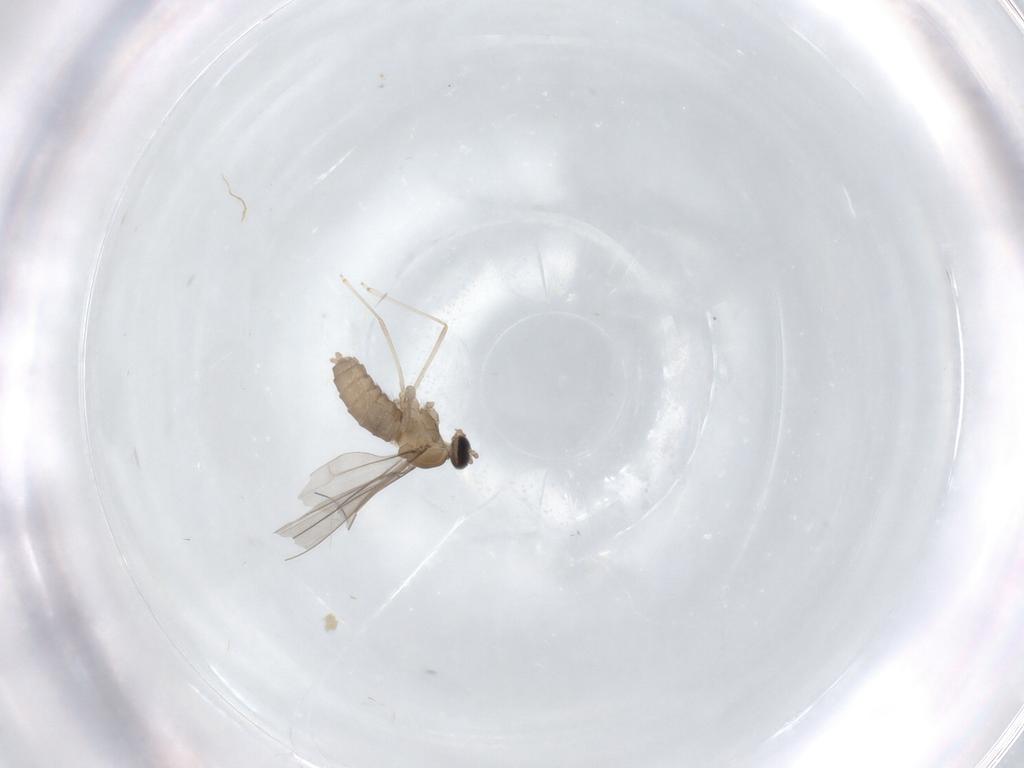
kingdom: Animalia
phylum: Arthropoda
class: Insecta
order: Diptera
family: Cecidomyiidae
